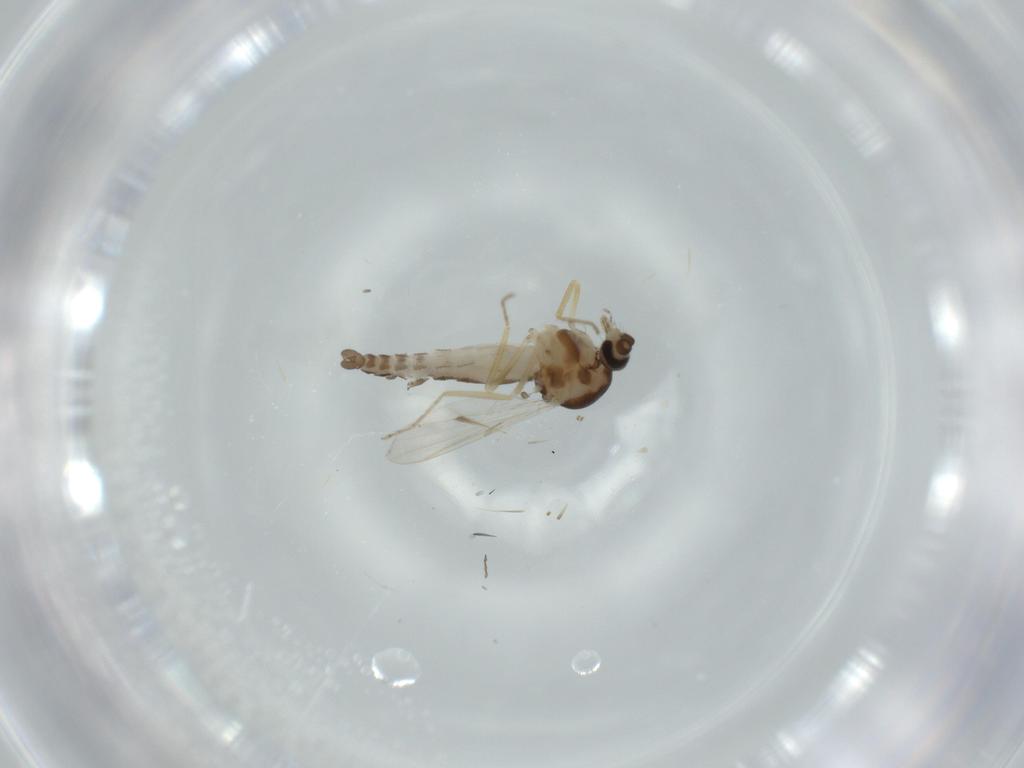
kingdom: Animalia
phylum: Arthropoda
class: Insecta
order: Diptera
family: Ceratopogonidae
